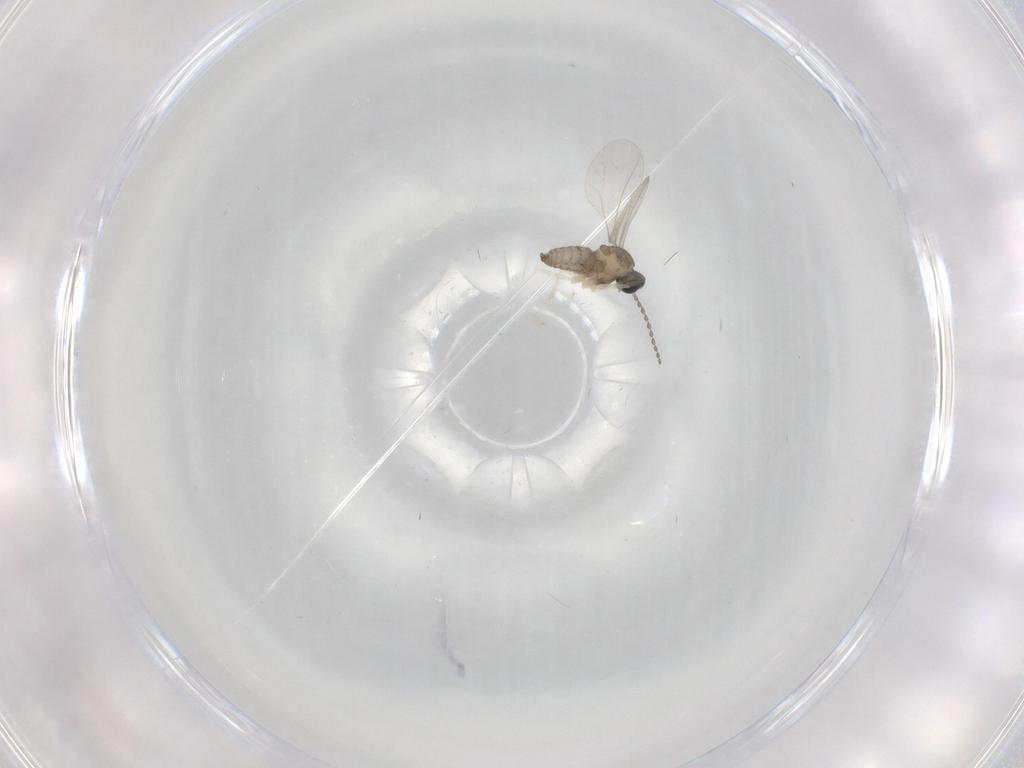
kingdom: Animalia
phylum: Arthropoda
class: Insecta
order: Diptera
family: Cecidomyiidae
